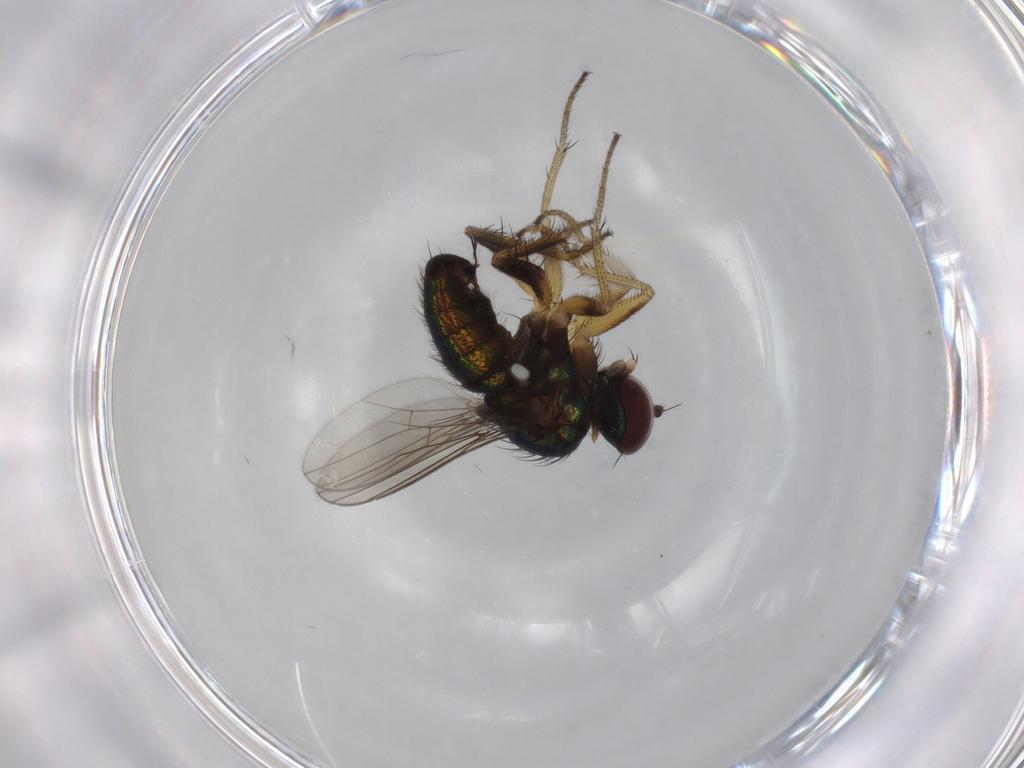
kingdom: Animalia
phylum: Arthropoda
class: Insecta
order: Diptera
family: Dolichopodidae
